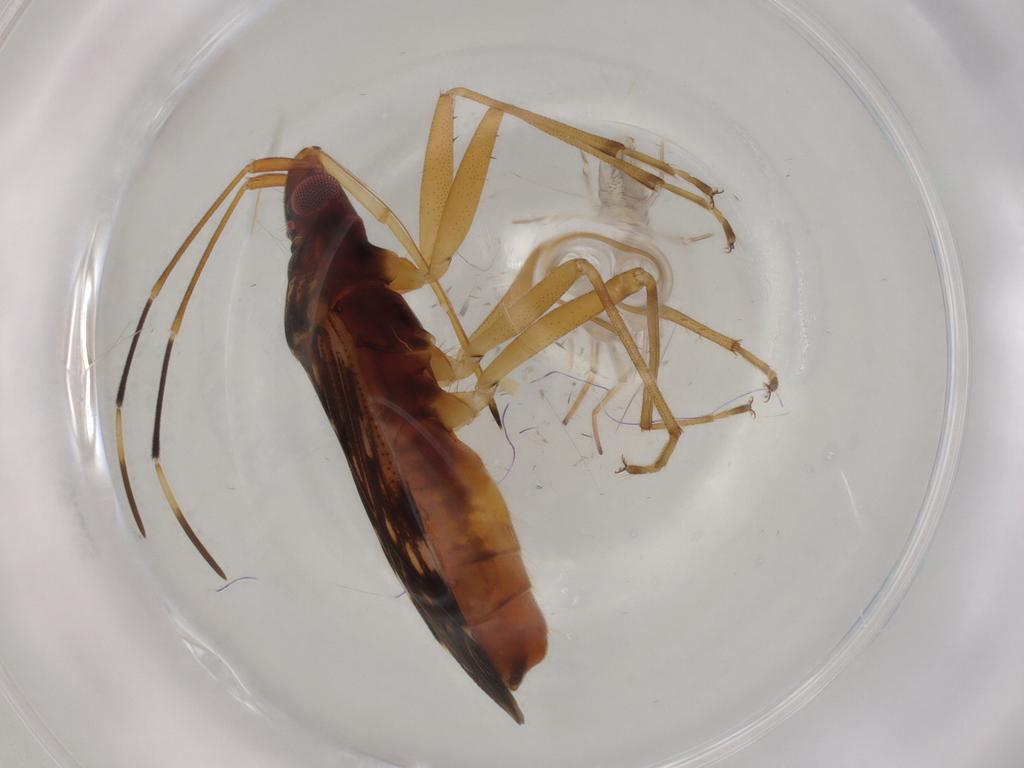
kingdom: Animalia
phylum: Arthropoda
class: Insecta
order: Hemiptera
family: Rhyparochromidae
